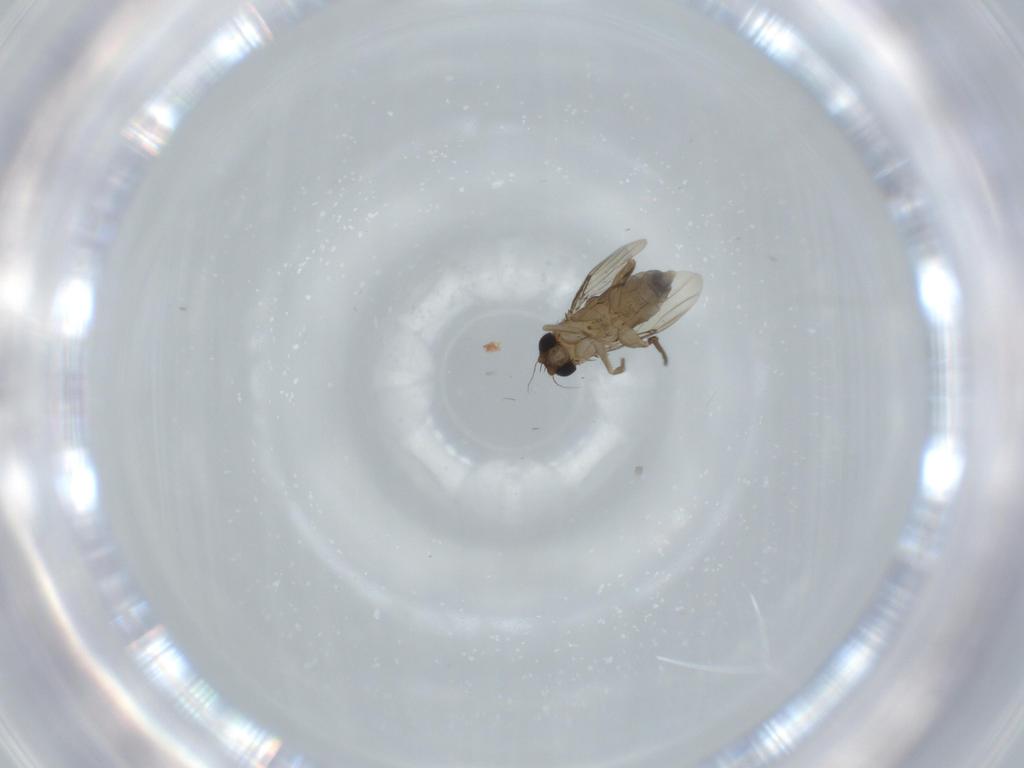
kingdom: Animalia
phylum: Arthropoda
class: Insecta
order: Diptera
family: Phoridae
